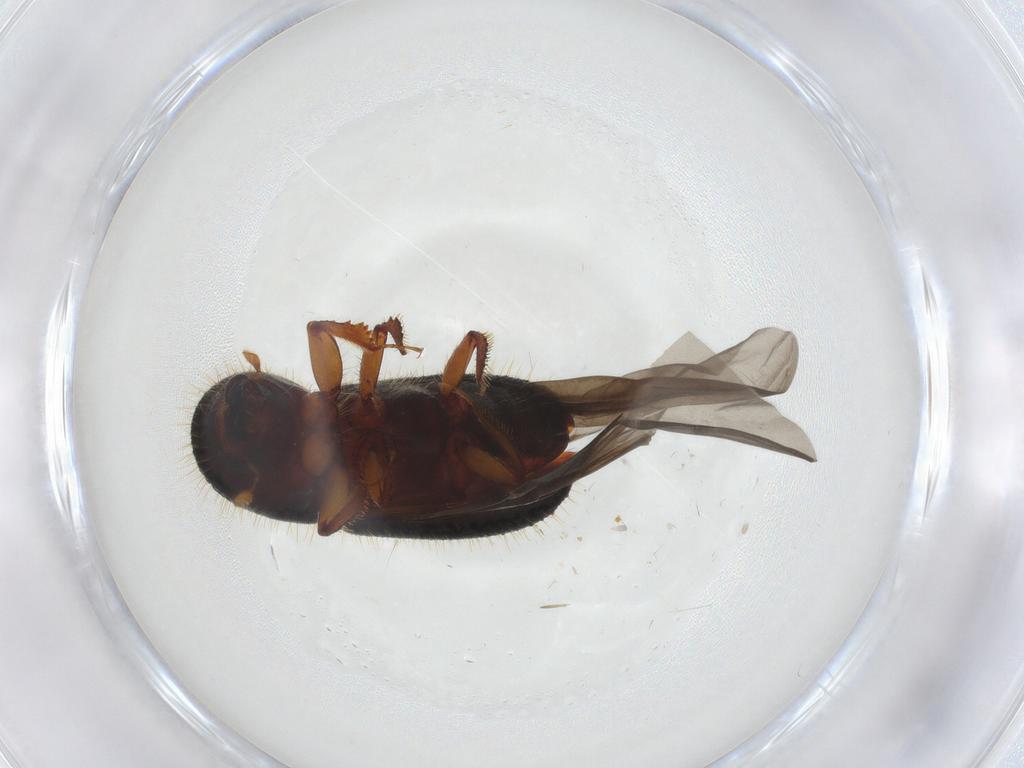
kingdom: Animalia
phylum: Arthropoda
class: Insecta
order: Coleoptera
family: Curculionidae
